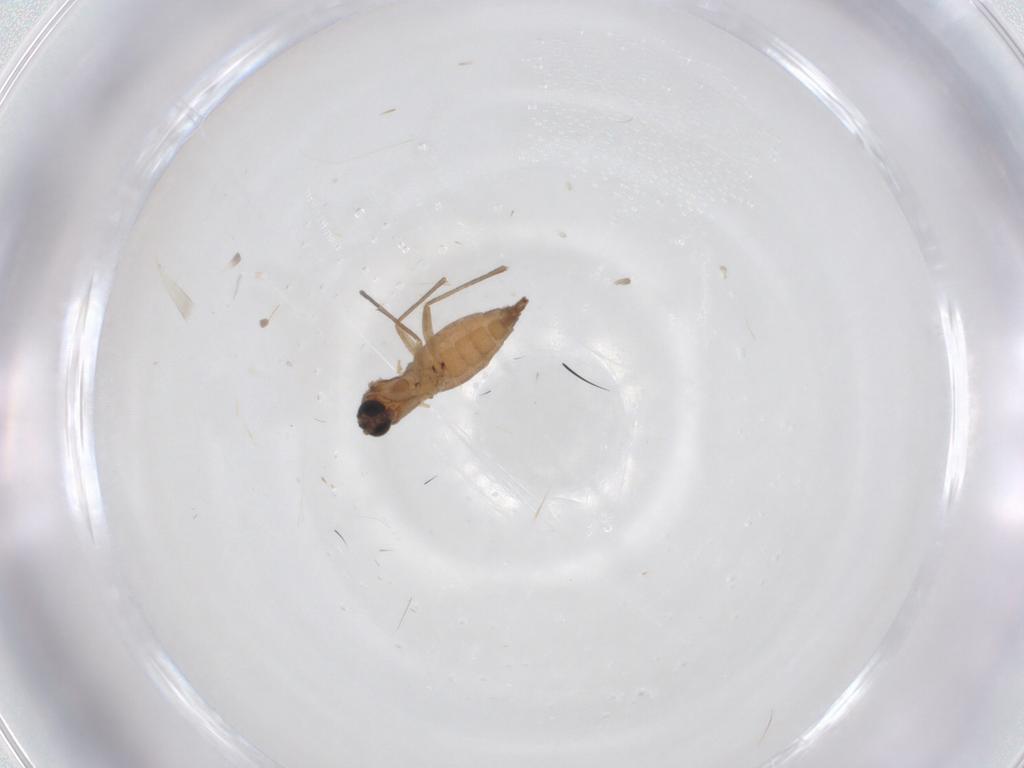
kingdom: Animalia
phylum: Arthropoda
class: Insecta
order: Diptera
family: Sciaridae
